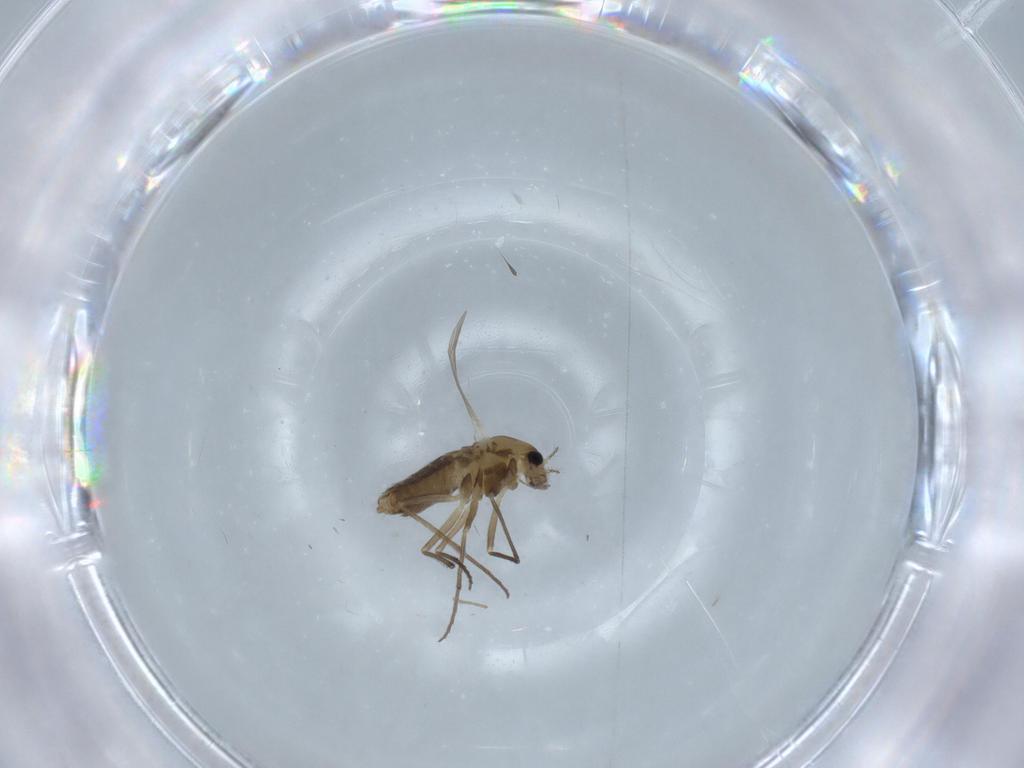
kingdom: Animalia
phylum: Arthropoda
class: Insecta
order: Diptera
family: Chironomidae
